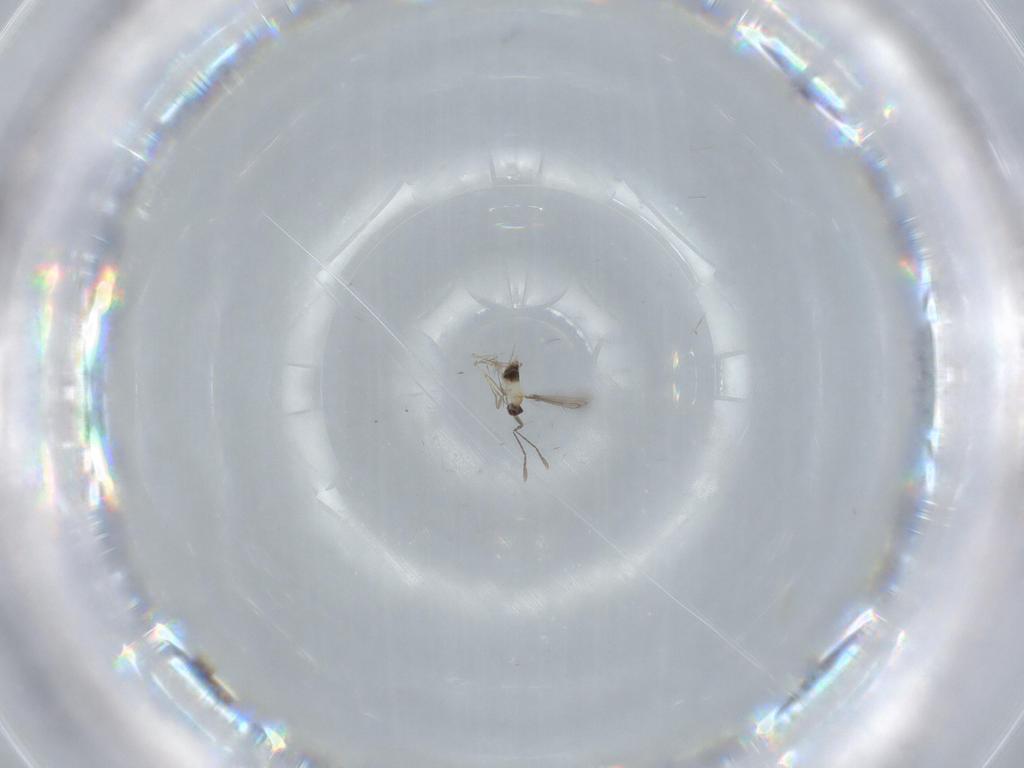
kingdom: Animalia
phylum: Arthropoda
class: Insecta
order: Hymenoptera
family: Mymaridae
